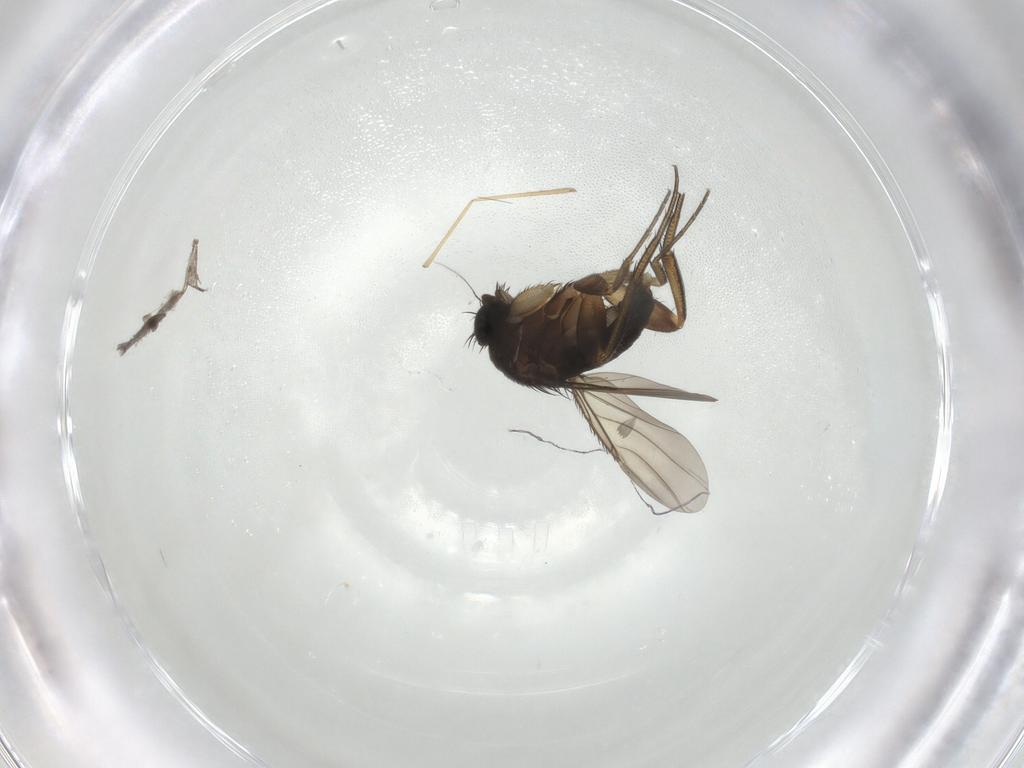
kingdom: Animalia
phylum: Arthropoda
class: Insecta
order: Diptera
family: Phoridae
